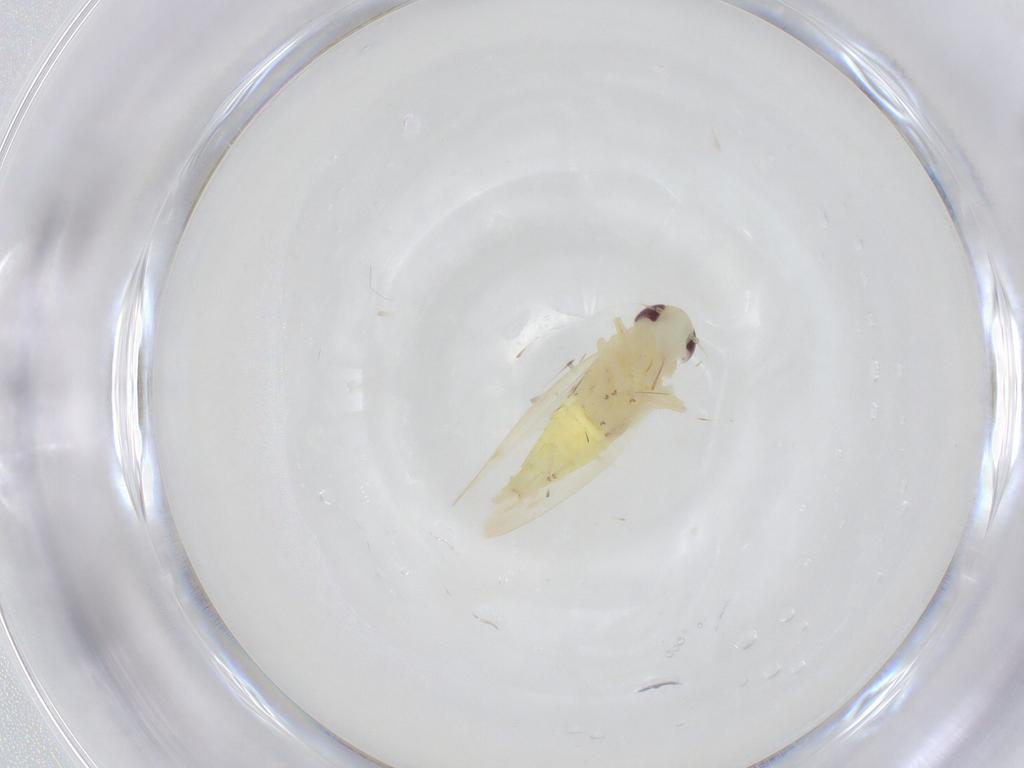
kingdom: Animalia
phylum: Arthropoda
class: Insecta
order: Hemiptera
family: Cicadellidae
